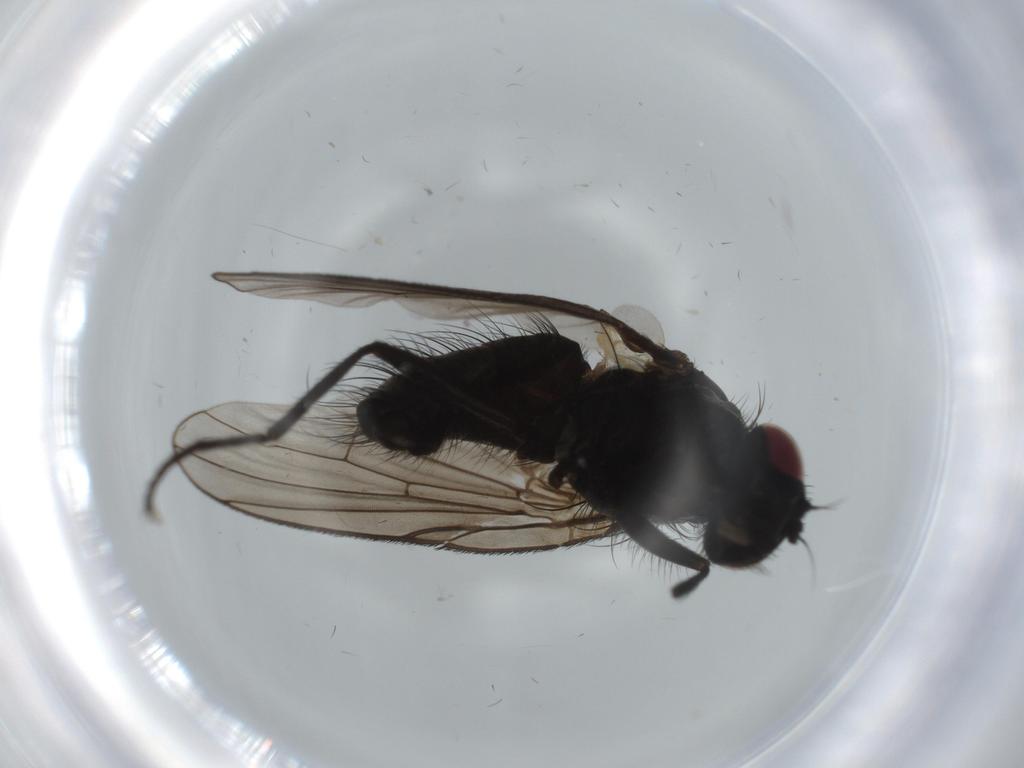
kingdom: Animalia
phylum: Arthropoda
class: Insecta
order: Diptera
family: Muscidae
